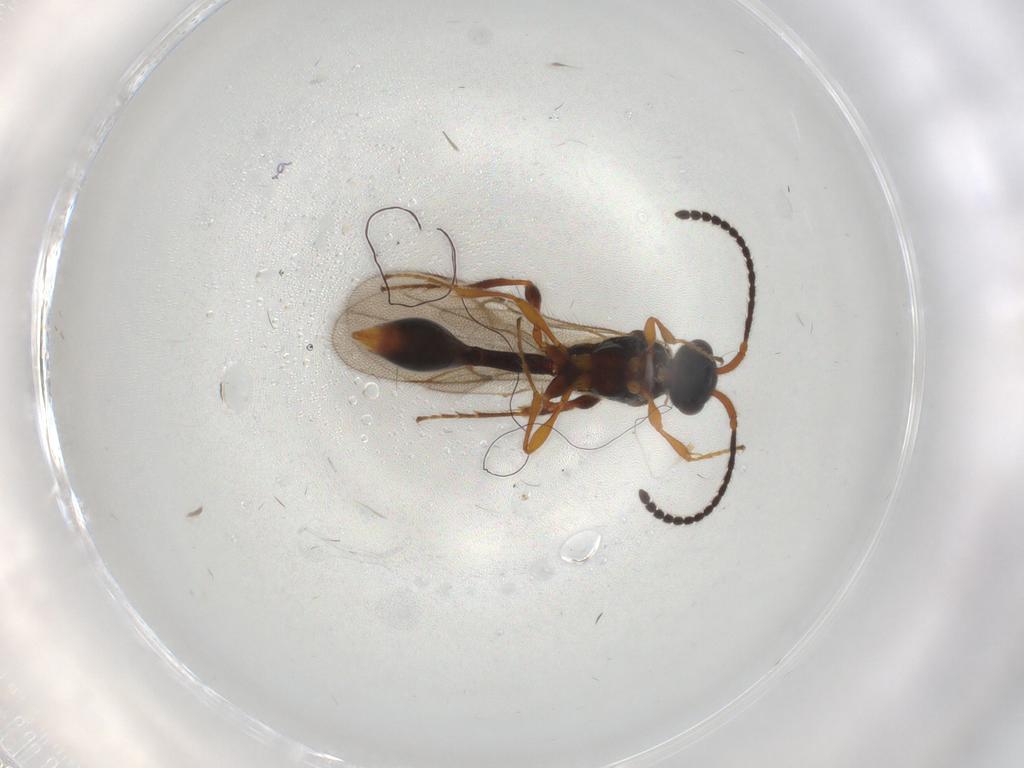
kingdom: Animalia
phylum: Arthropoda
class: Insecta
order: Hymenoptera
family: Diapriidae
